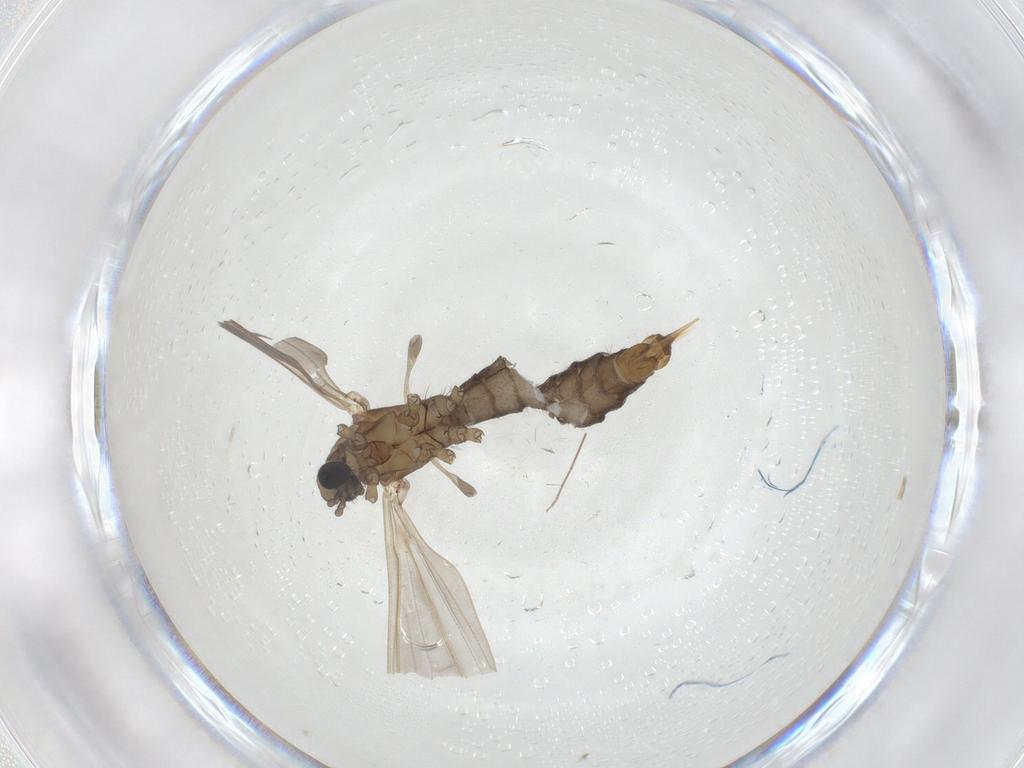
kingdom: Animalia
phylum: Arthropoda
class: Insecta
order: Diptera
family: Limoniidae
